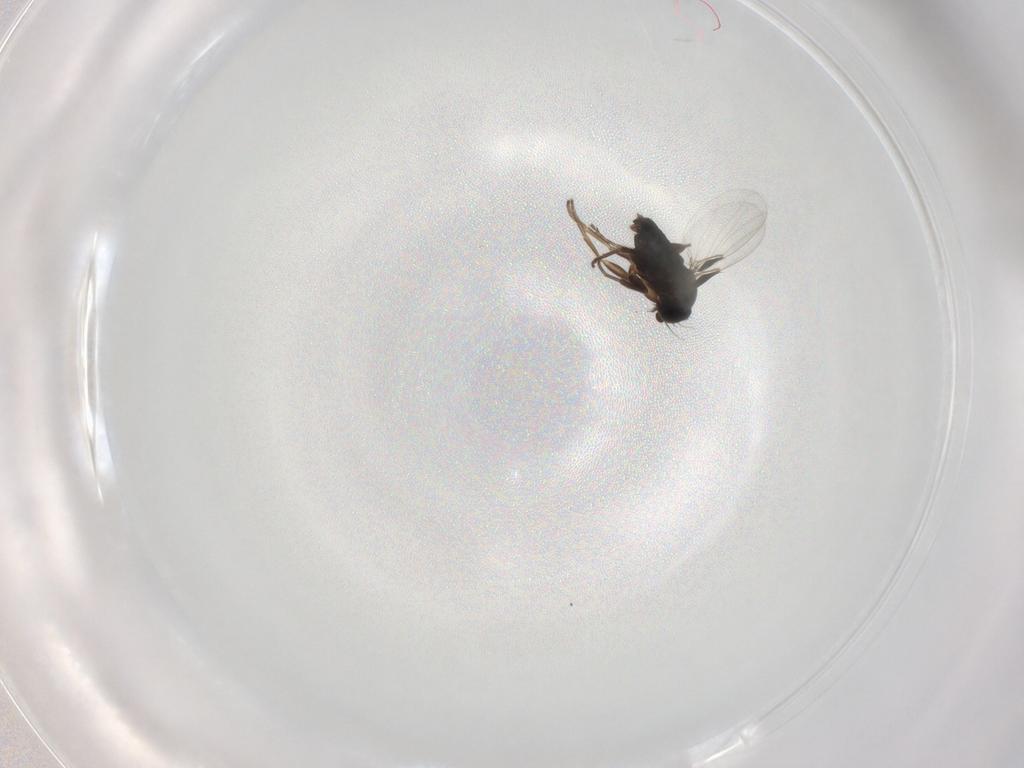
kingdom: Animalia
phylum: Arthropoda
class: Insecta
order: Diptera
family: Phoridae
